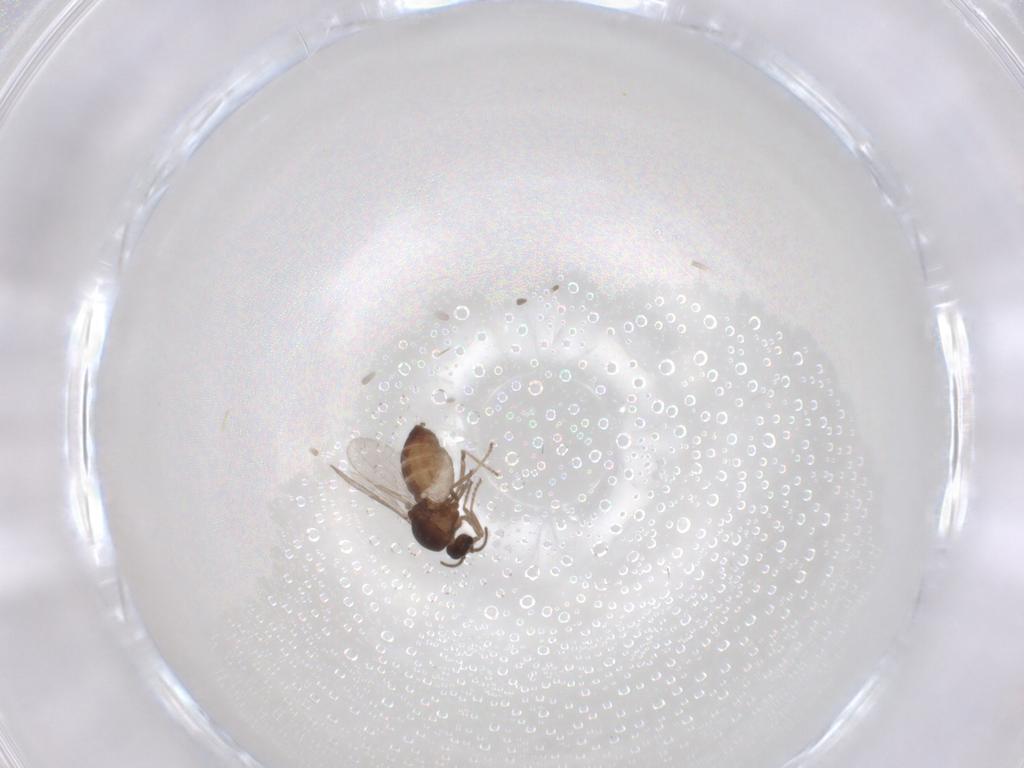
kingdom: Animalia
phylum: Arthropoda
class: Insecta
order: Diptera
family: Ceratopogonidae
